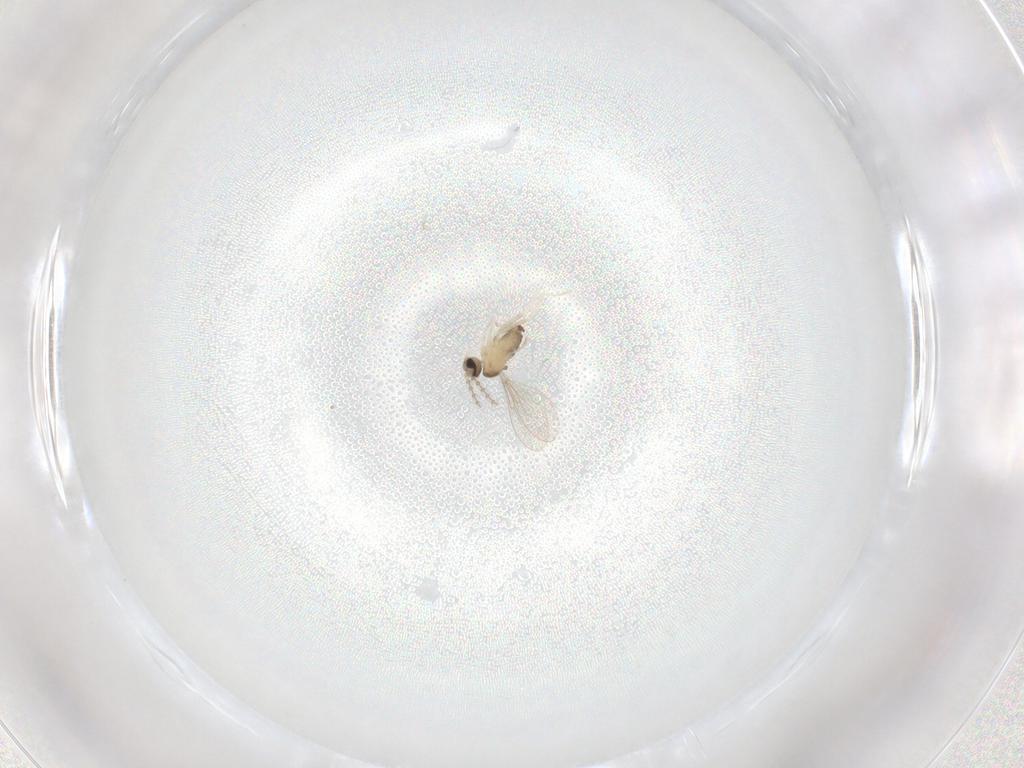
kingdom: Animalia
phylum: Arthropoda
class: Insecta
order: Diptera
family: Cecidomyiidae
